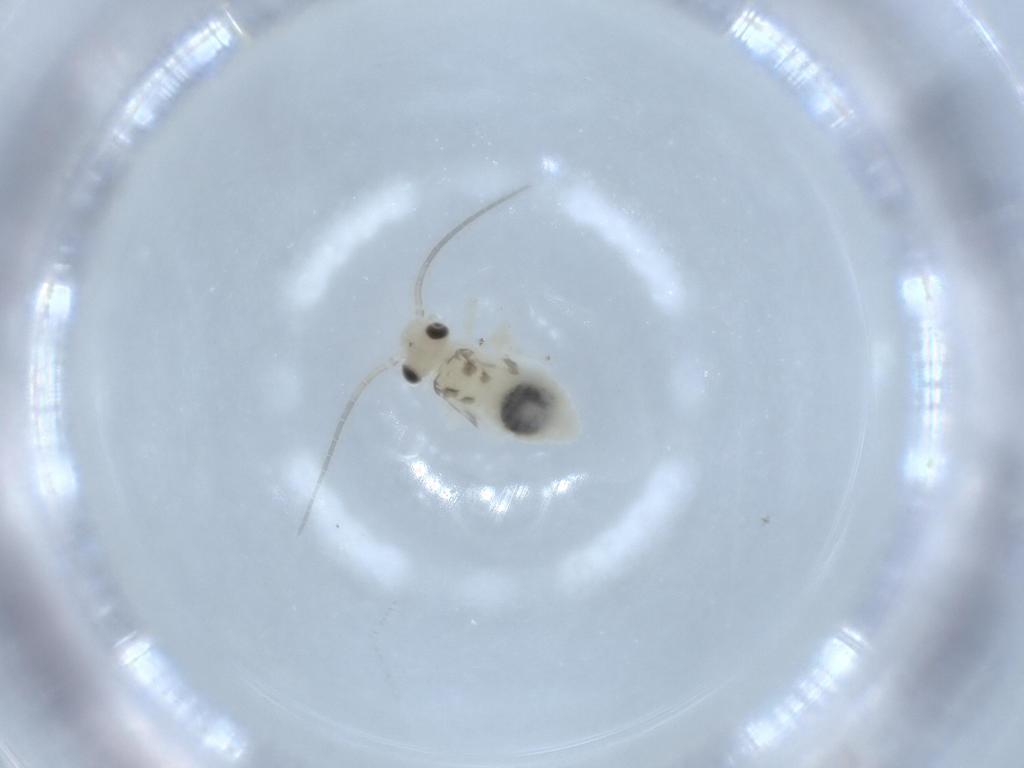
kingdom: Animalia
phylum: Arthropoda
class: Insecta
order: Psocodea
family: Caeciliusidae
